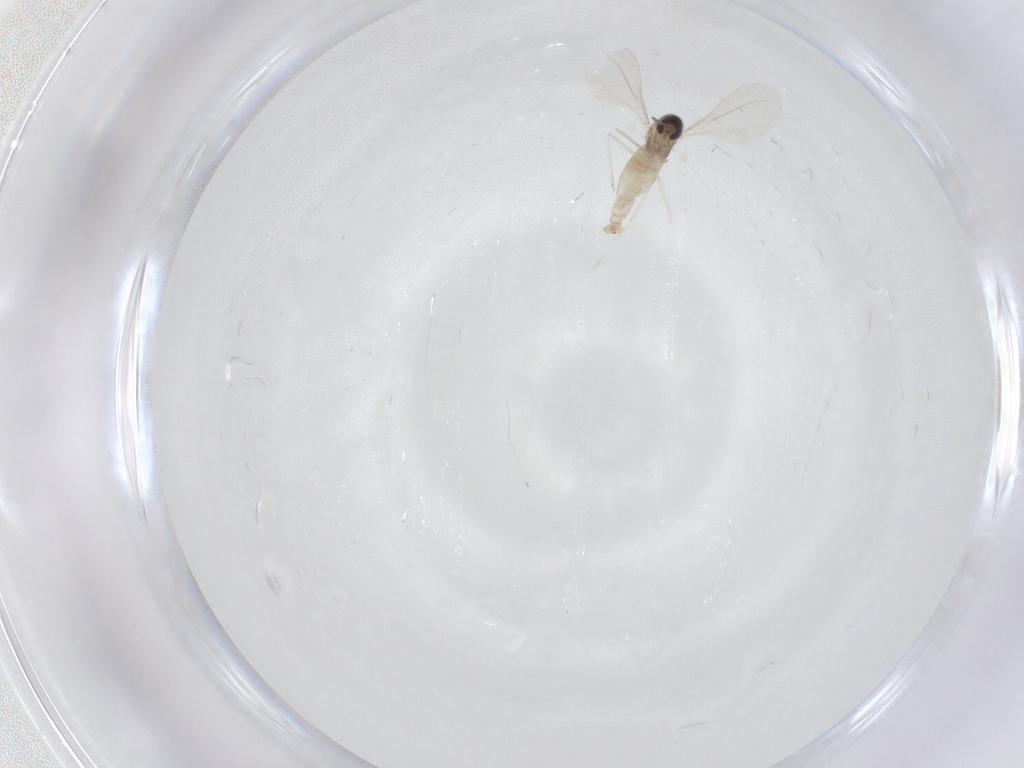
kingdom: Animalia
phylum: Arthropoda
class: Insecta
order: Diptera
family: Cecidomyiidae
